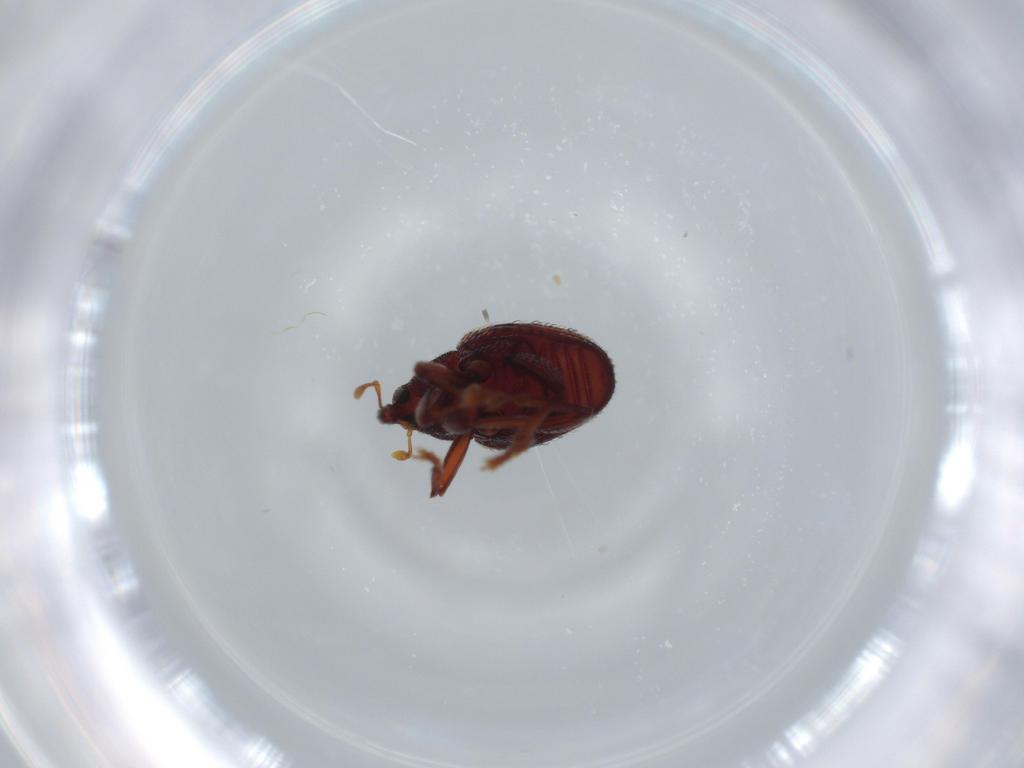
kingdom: Animalia
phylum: Arthropoda
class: Insecta
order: Coleoptera
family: Curculionidae
